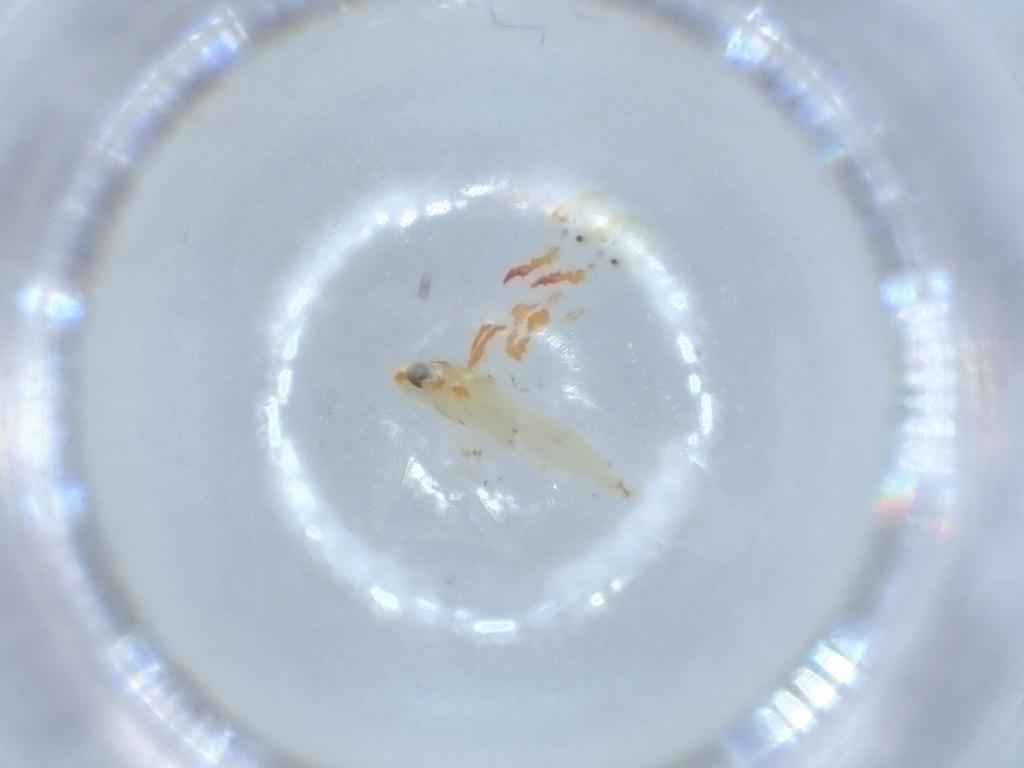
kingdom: Animalia
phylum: Arthropoda
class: Insecta
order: Hemiptera
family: Cicadellidae
